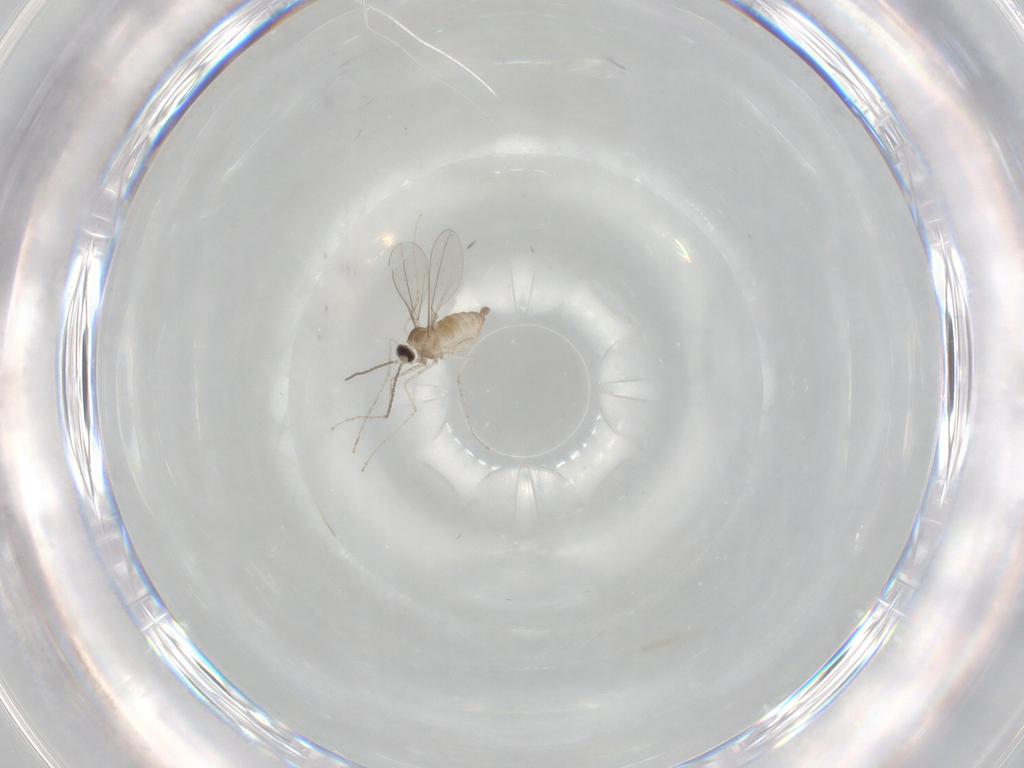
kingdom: Animalia
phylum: Arthropoda
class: Insecta
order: Diptera
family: Cecidomyiidae
